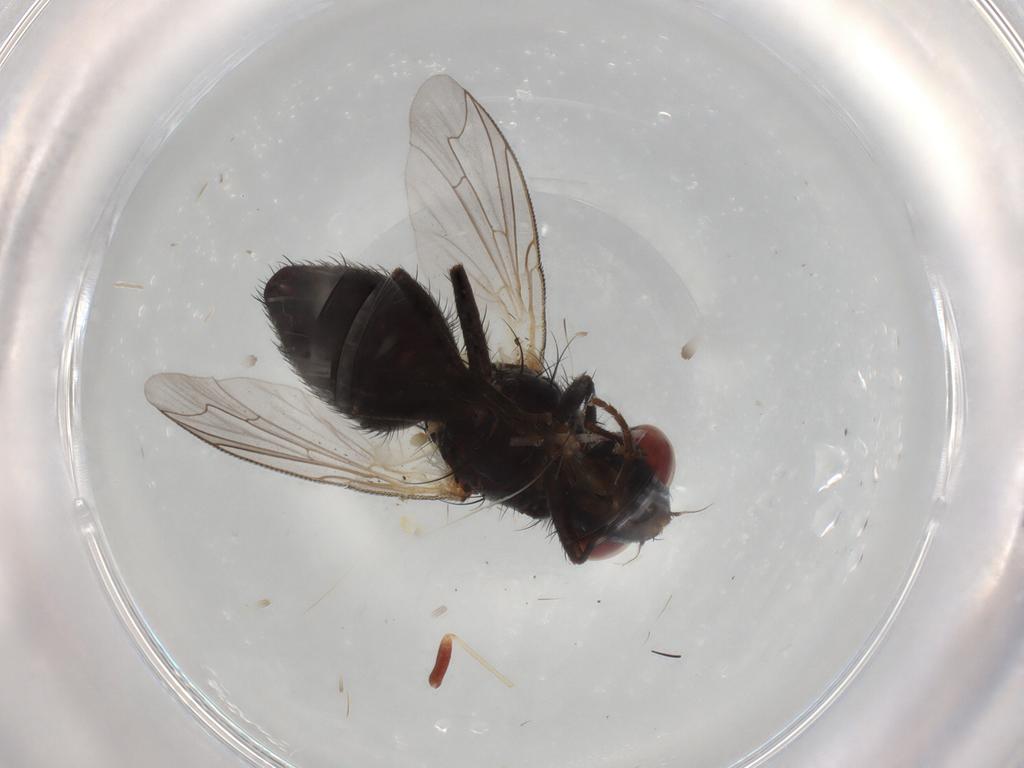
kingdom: Animalia
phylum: Arthropoda
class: Insecta
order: Diptera
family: Sarcophagidae
